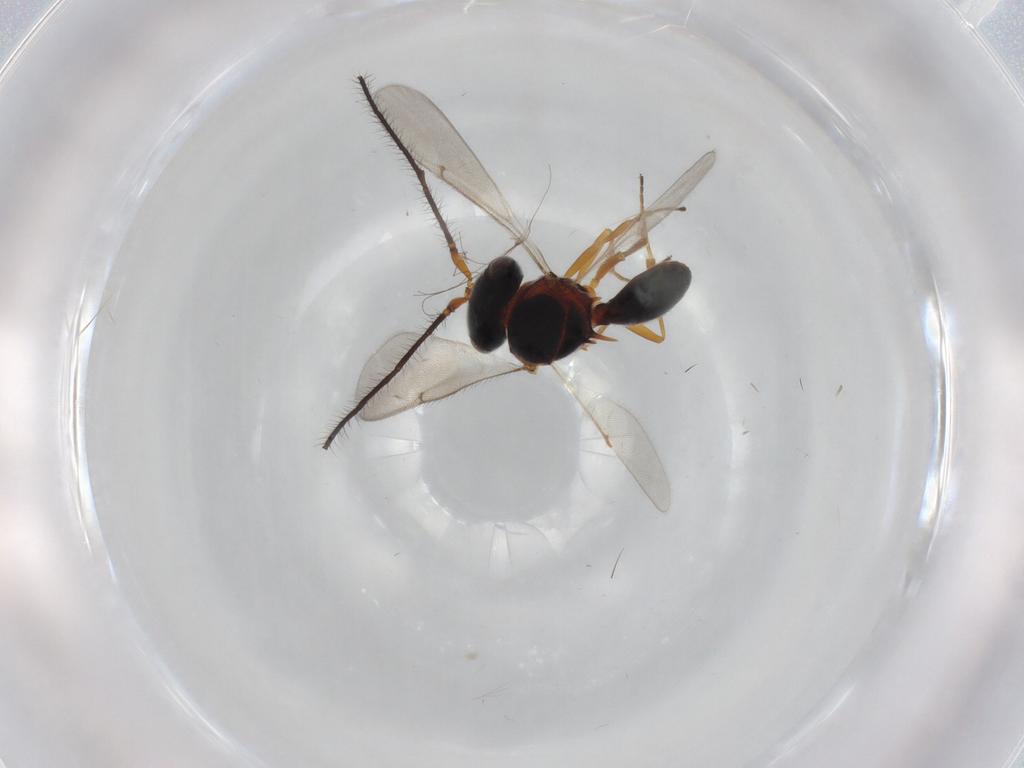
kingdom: Animalia
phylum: Arthropoda
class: Insecta
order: Hymenoptera
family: Scelionidae
